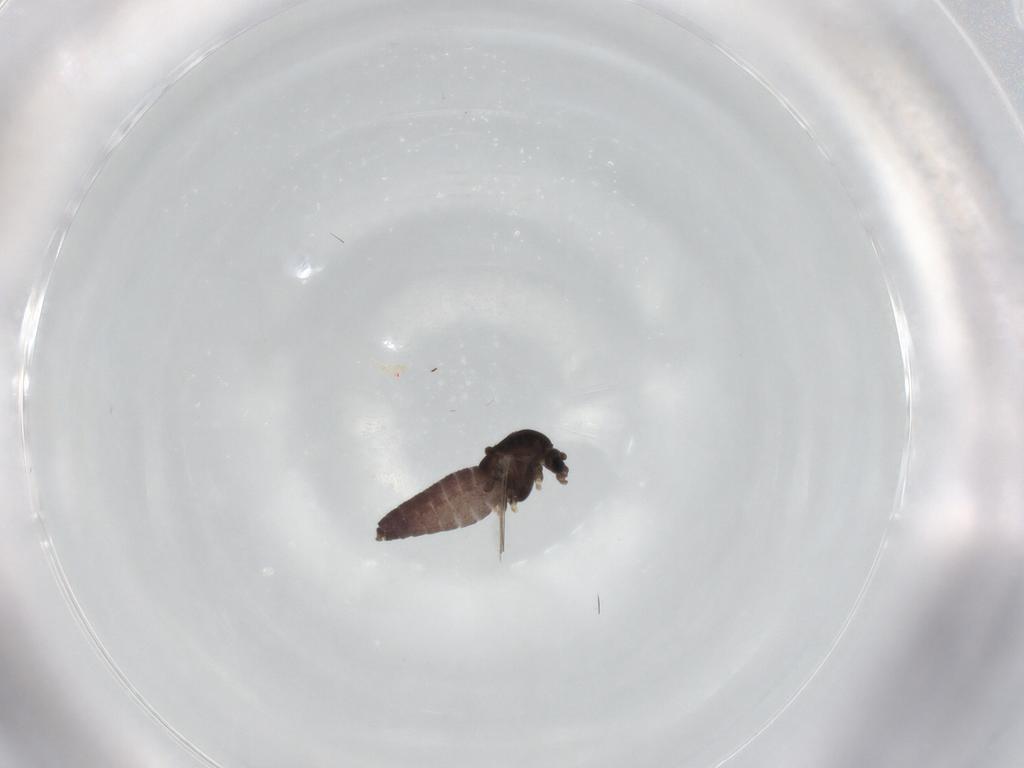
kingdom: Animalia
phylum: Arthropoda
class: Insecta
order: Diptera
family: Chironomidae
